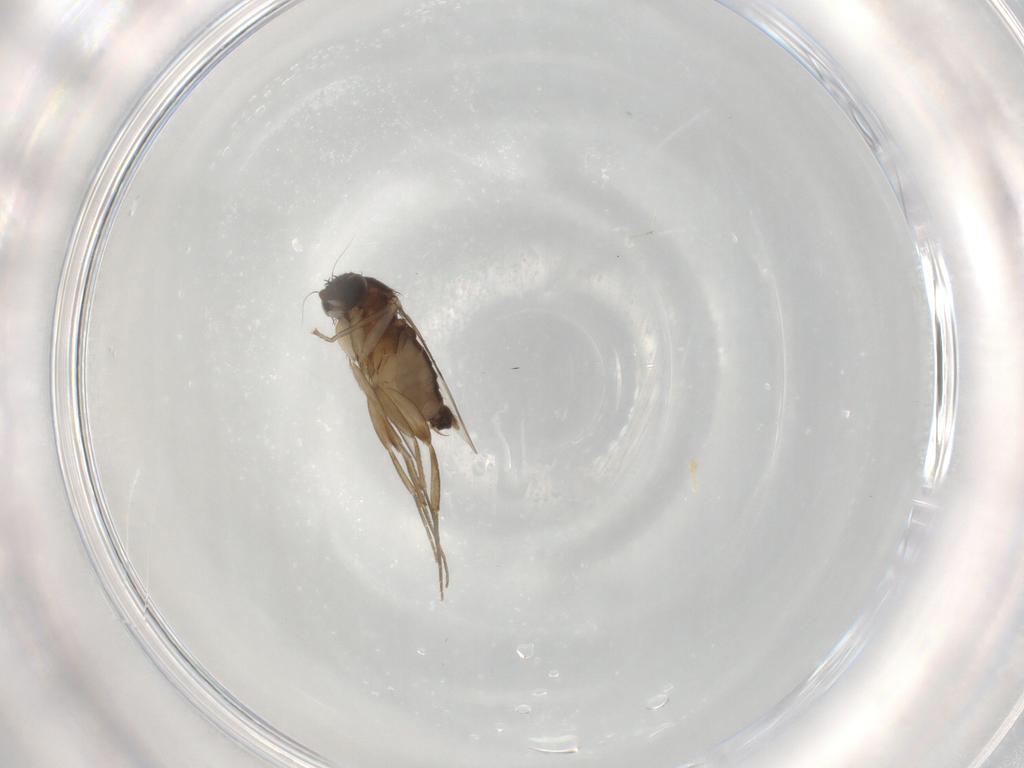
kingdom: Animalia
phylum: Arthropoda
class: Insecta
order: Diptera
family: Phoridae
